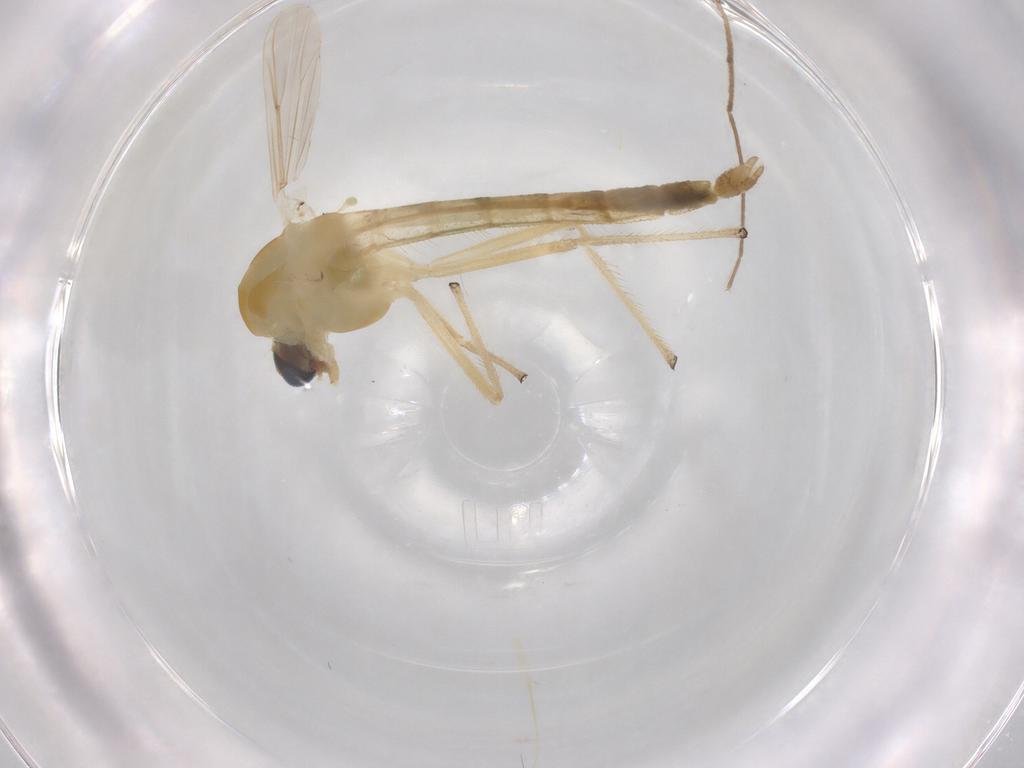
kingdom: Animalia
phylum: Arthropoda
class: Insecta
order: Diptera
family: Chironomidae
